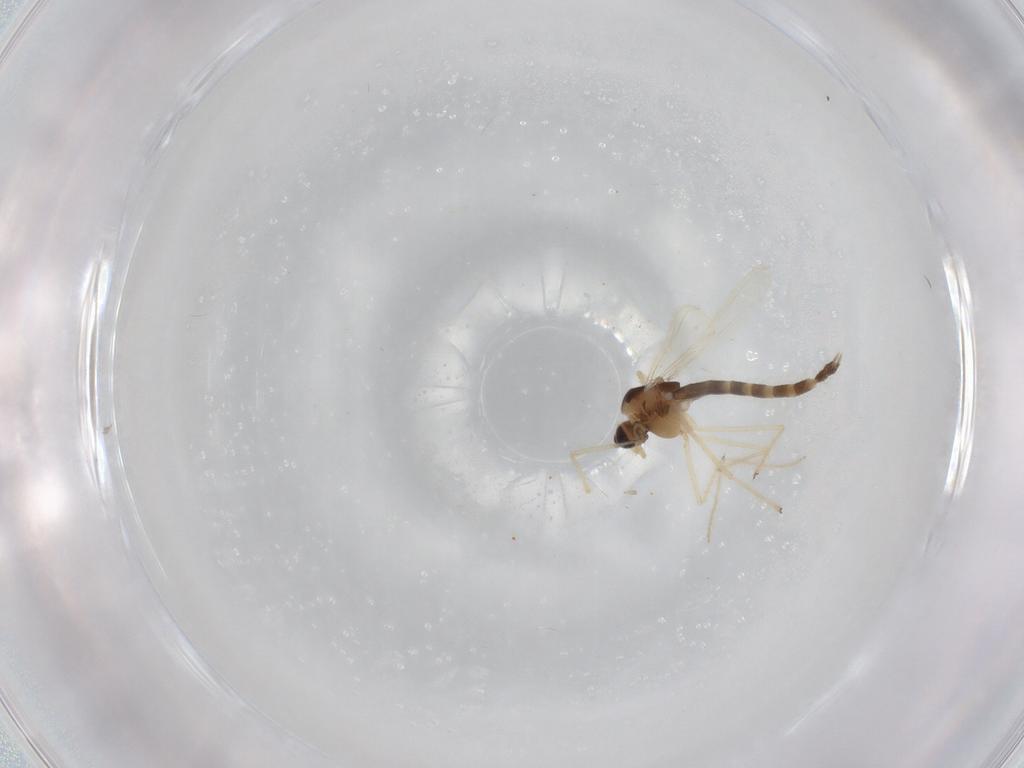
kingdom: Animalia
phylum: Arthropoda
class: Insecta
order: Diptera
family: Chironomidae
